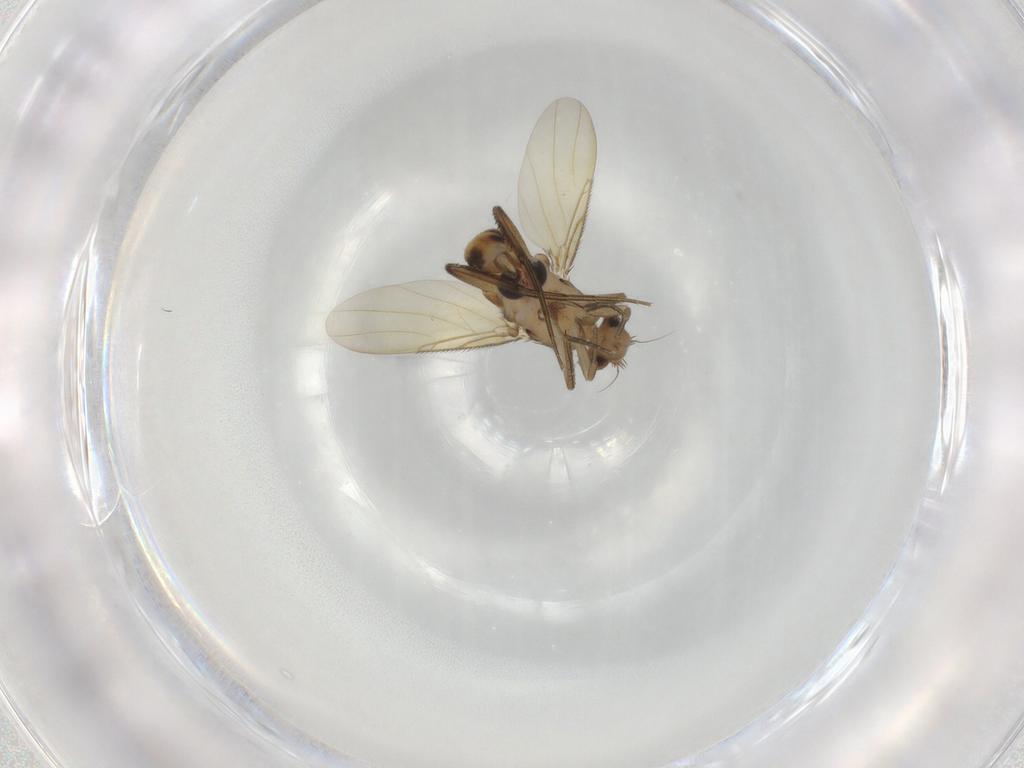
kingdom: Animalia
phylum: Arthropoda
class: Insecta
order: Diptera
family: Phoridae
